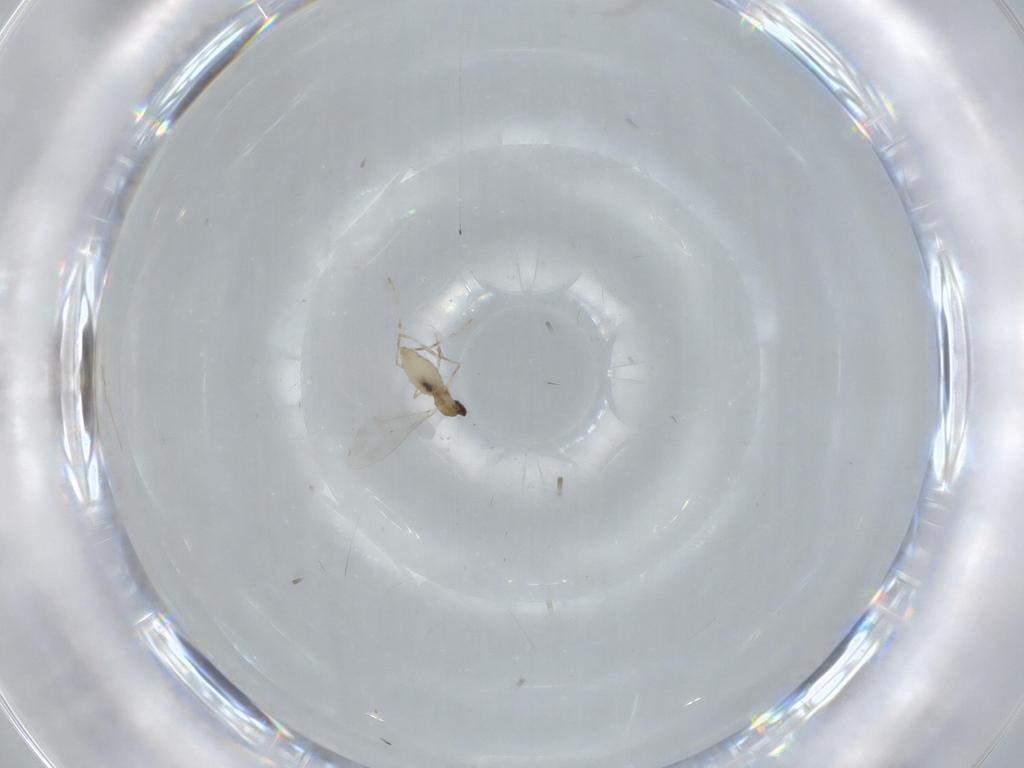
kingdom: Animalia
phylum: Arthropoda
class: Insecta
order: Diptera
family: Cecidomyiidae
